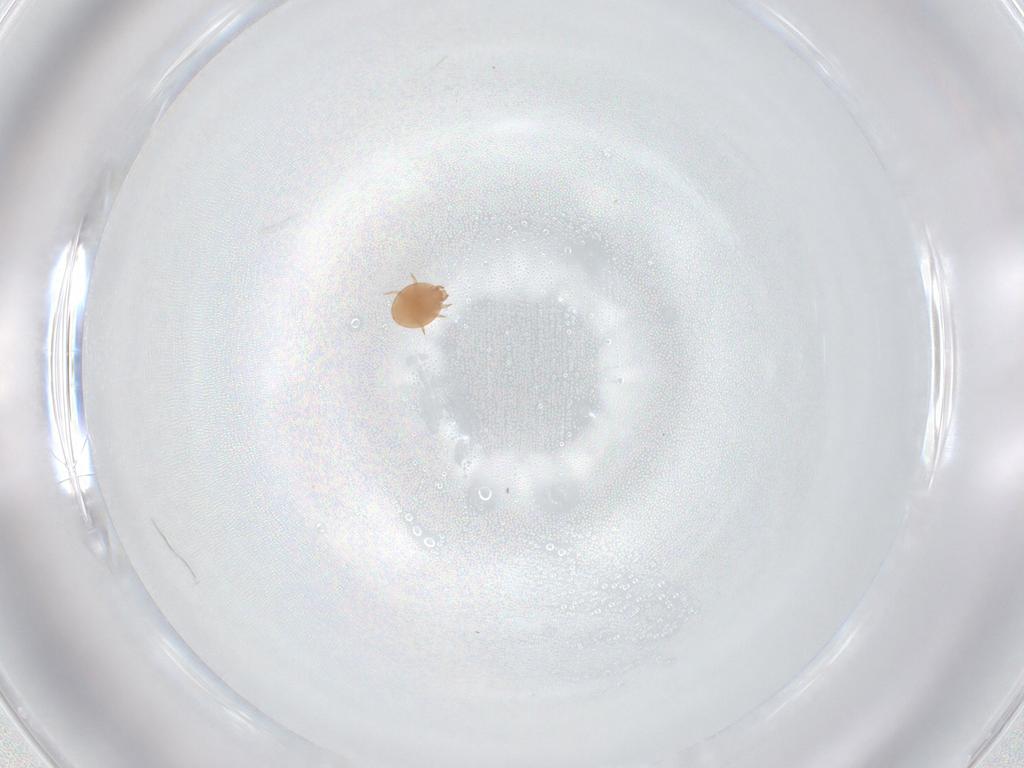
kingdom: Animalia
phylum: Arthropoda
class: Arachnida
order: Mesostigmata
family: Trematuridae
